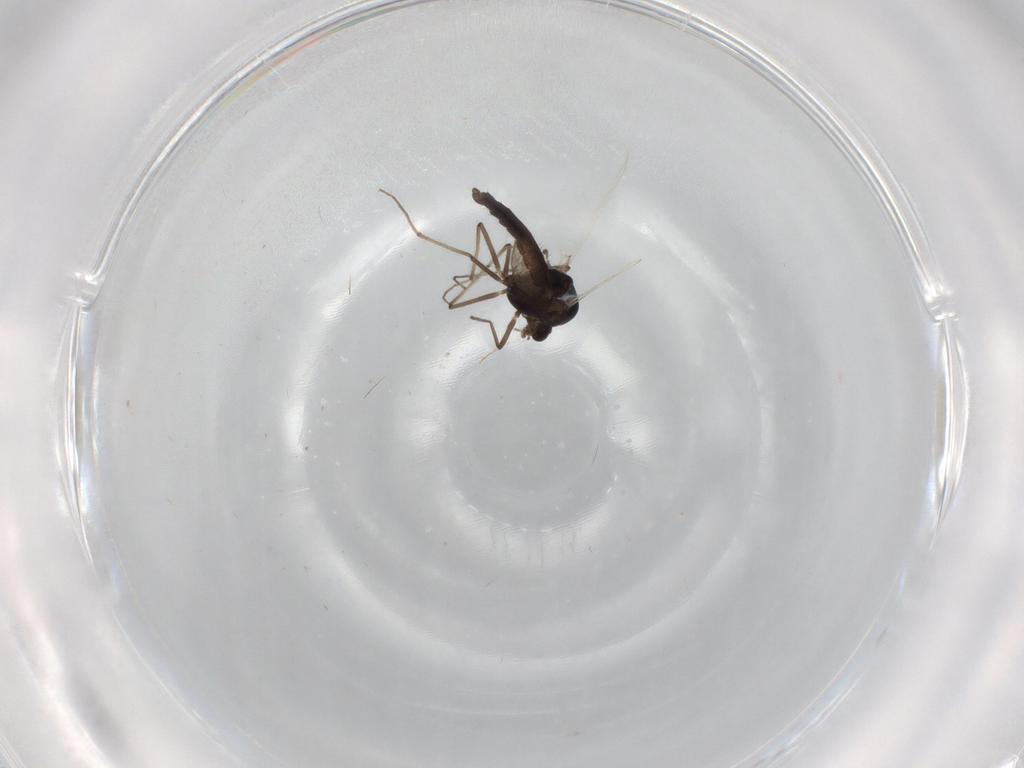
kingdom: Animalia
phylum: Arthropoda
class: Insecta
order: Diptera
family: Chironomidae
